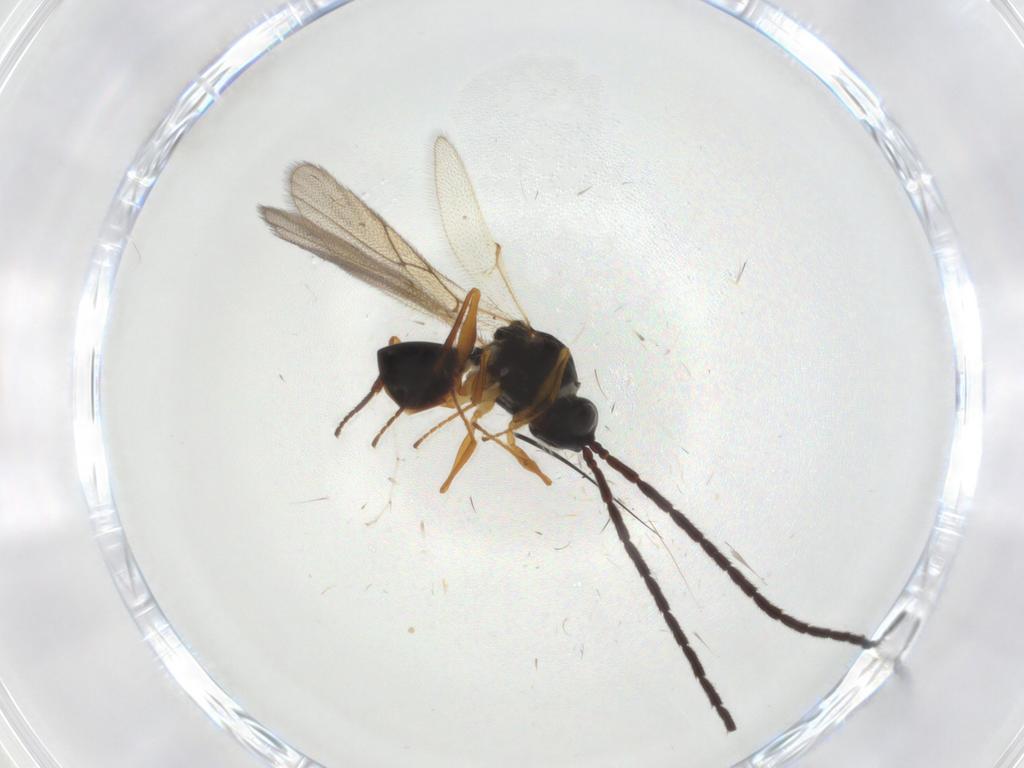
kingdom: Animalia
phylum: Arthropoda
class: Insecta
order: Hymenoptera
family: Figitidae
